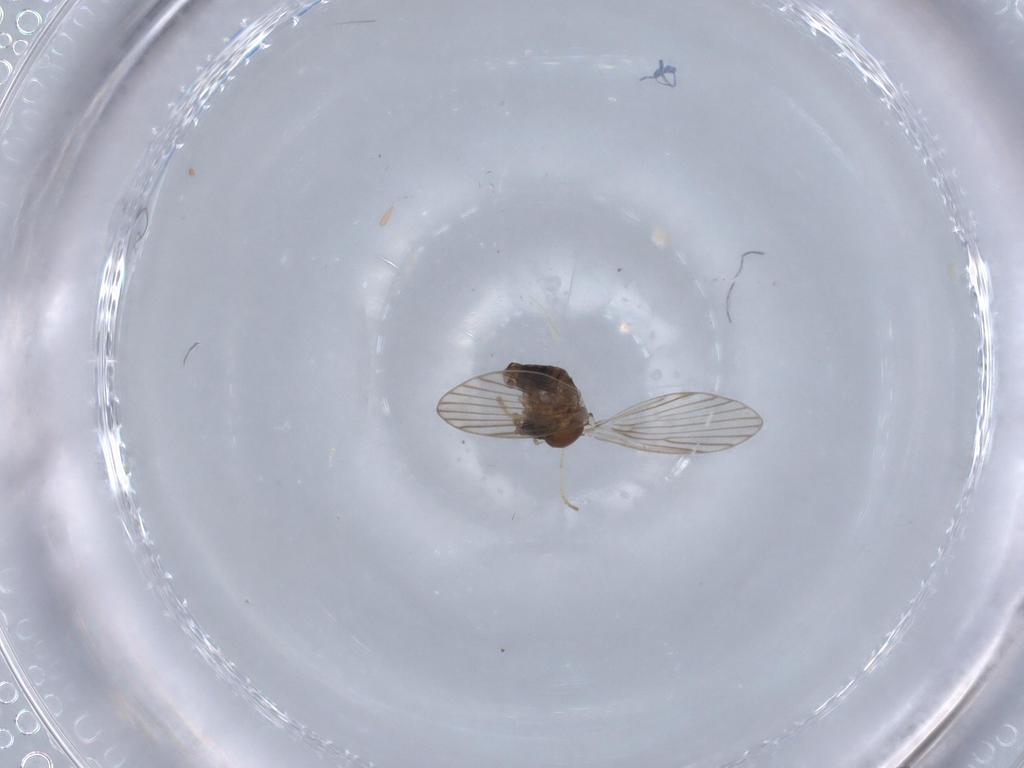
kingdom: Animalia
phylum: Arthropoda
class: Insecta
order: Diptera
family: Psychodidae
